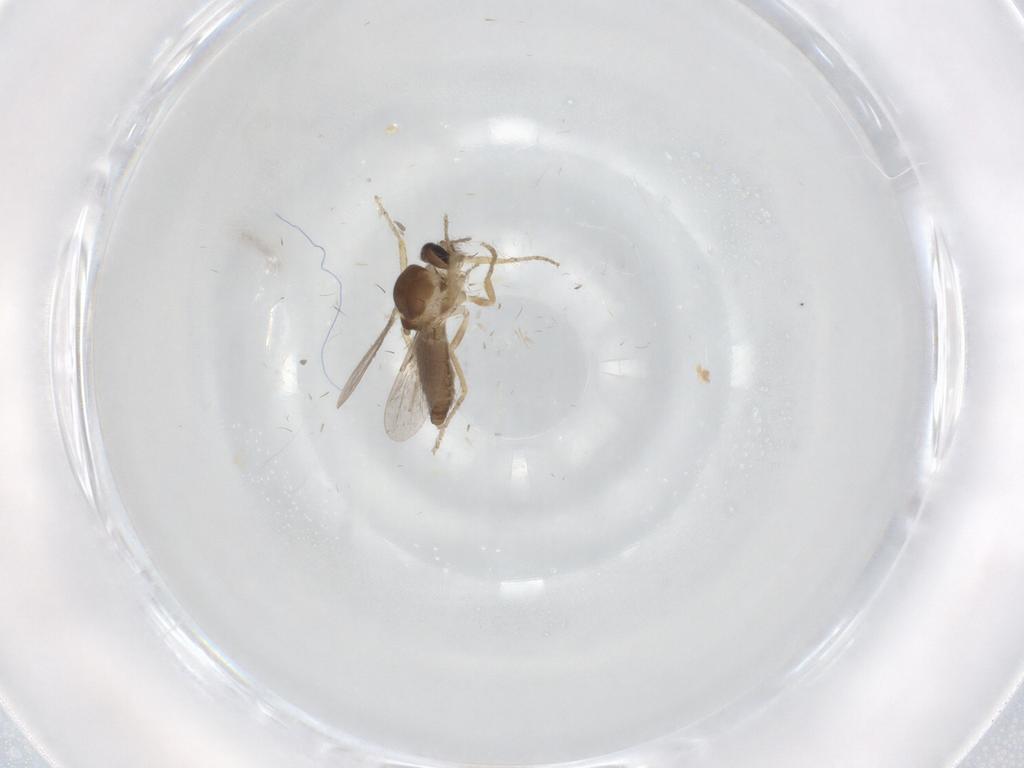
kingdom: Animalia
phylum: Arthropoda
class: Insecta
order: Diptera
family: Ceratopogonidae
